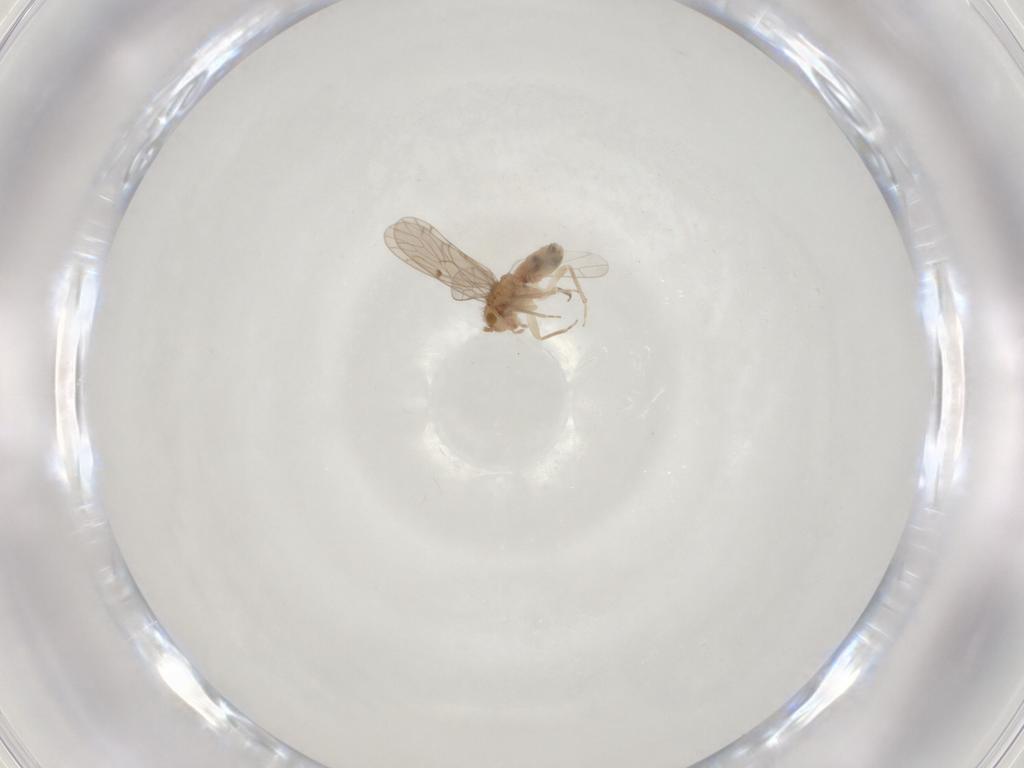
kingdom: Animalia
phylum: Arthropoda
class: Insecta
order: Psocodea
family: Ectopsocidae
